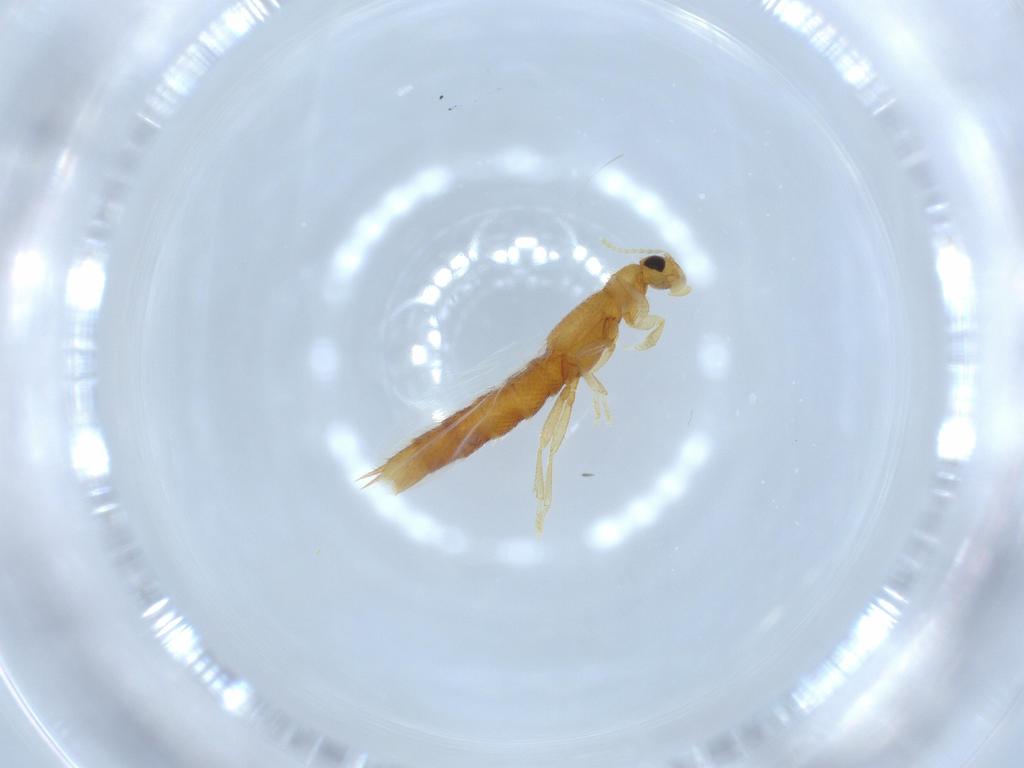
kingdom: Animalia
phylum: Arthropoda
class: Insecta
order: Coleoptera
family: Staphylinidae
